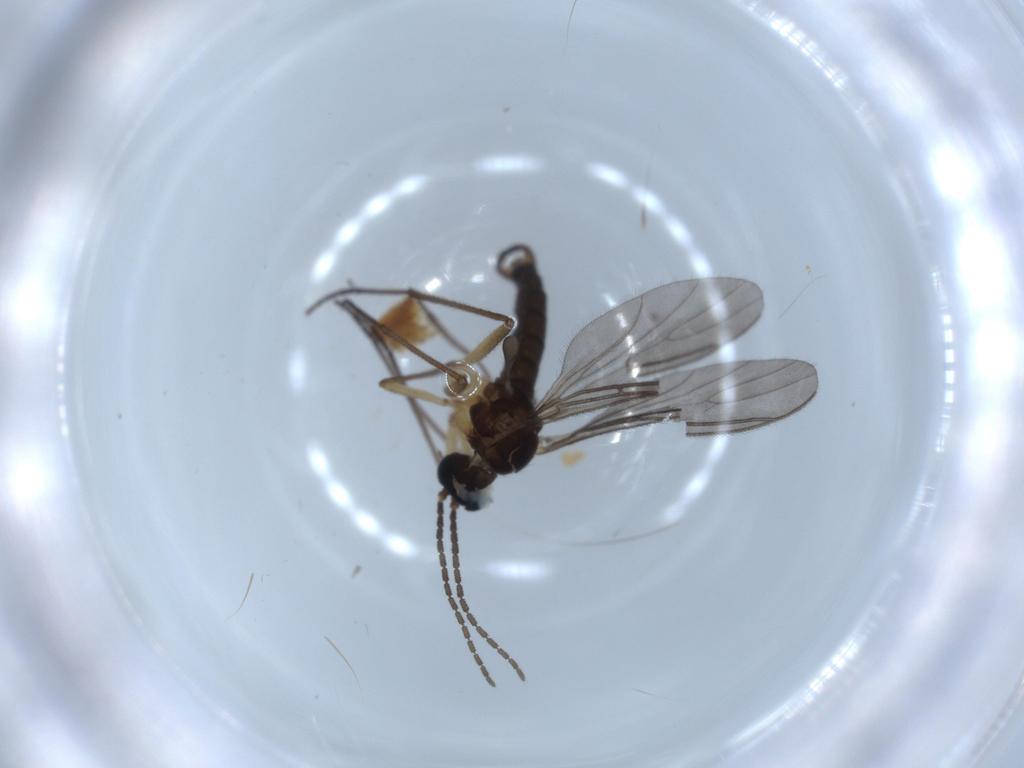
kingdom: Animalia
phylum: Arthropoda
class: Insecta
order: Diptera
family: Sciaridae
